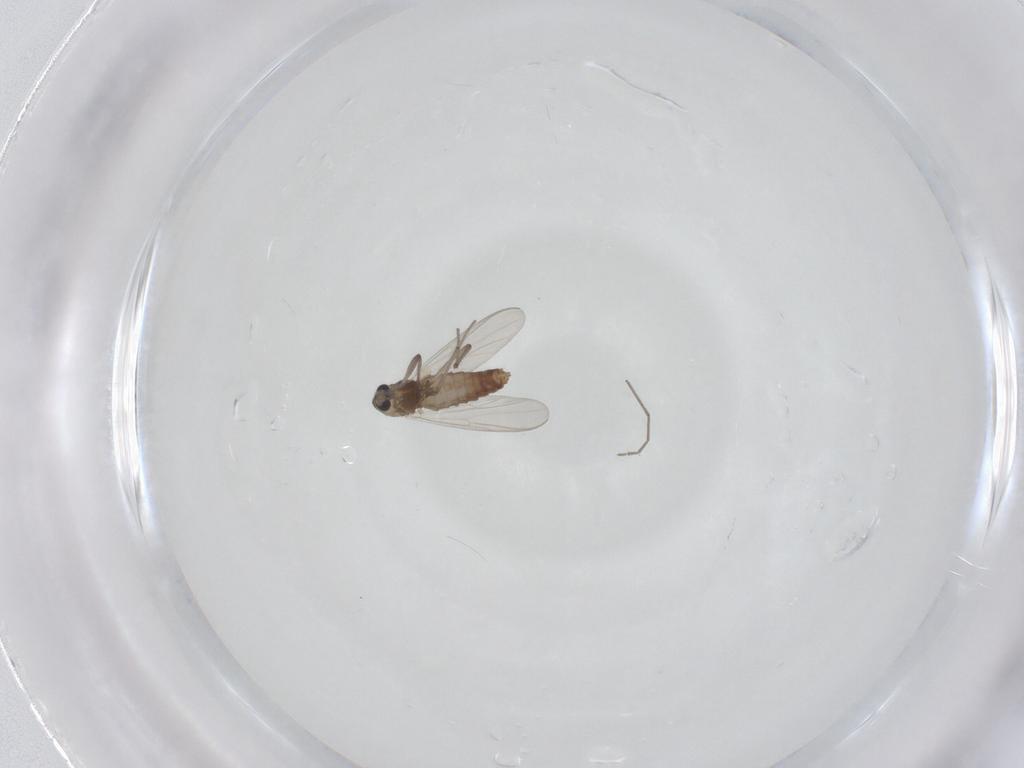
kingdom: Animalia
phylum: Arthropoda
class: Insecta
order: Diptera
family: Chironomidae
